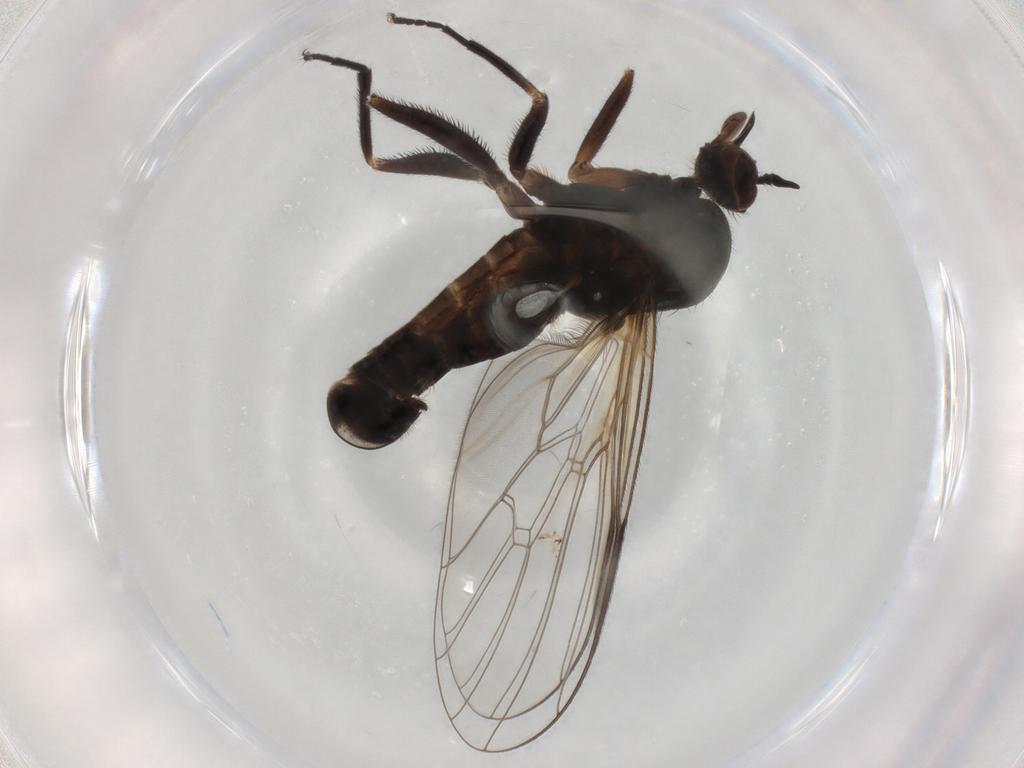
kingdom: Animalia
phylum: Arthropoda
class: Insecta
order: Diptera
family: Empididae
